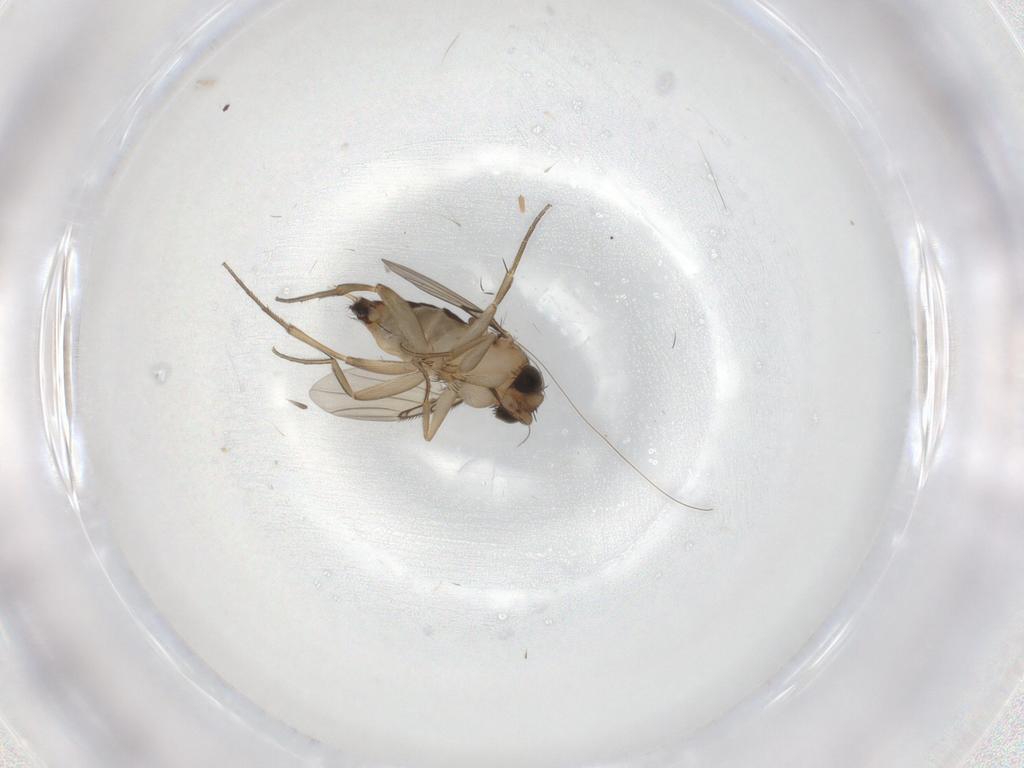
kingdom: Animalia
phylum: Arthropoda
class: Insecta
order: Diptera
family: Phoridae
